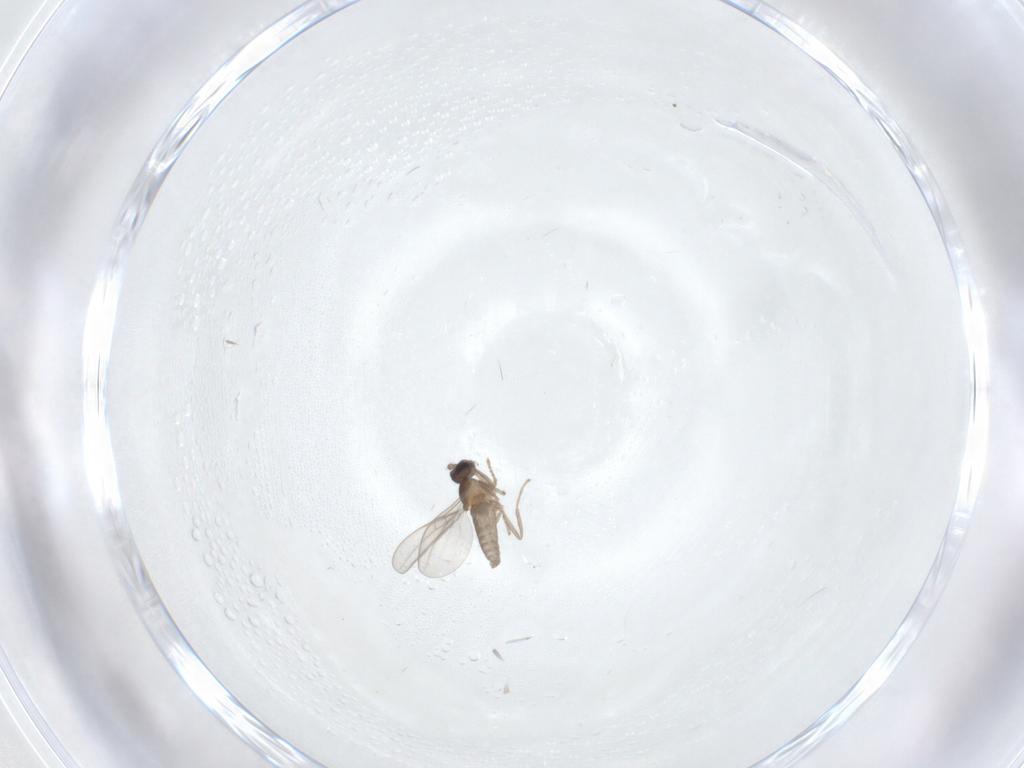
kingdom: Animalia
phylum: Arthropoda
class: Insecta
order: Diptera
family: Cecidomyiidae
